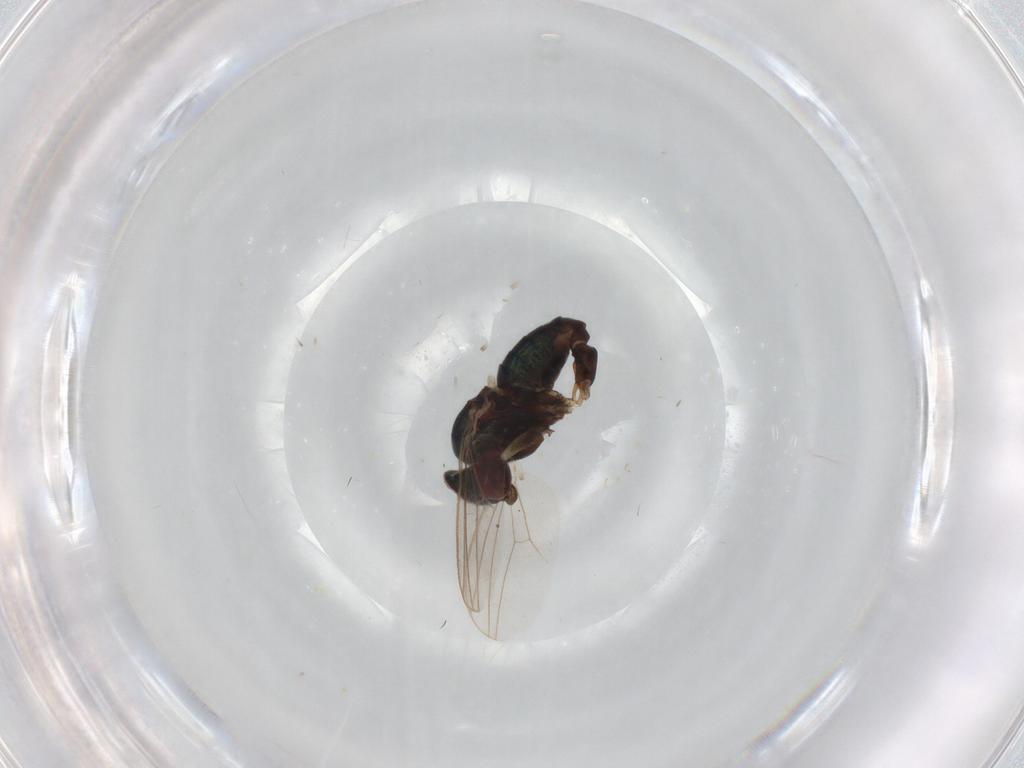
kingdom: Animalia
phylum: Arthropoda
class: Insecta
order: Diptera
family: Dolichopodidae
